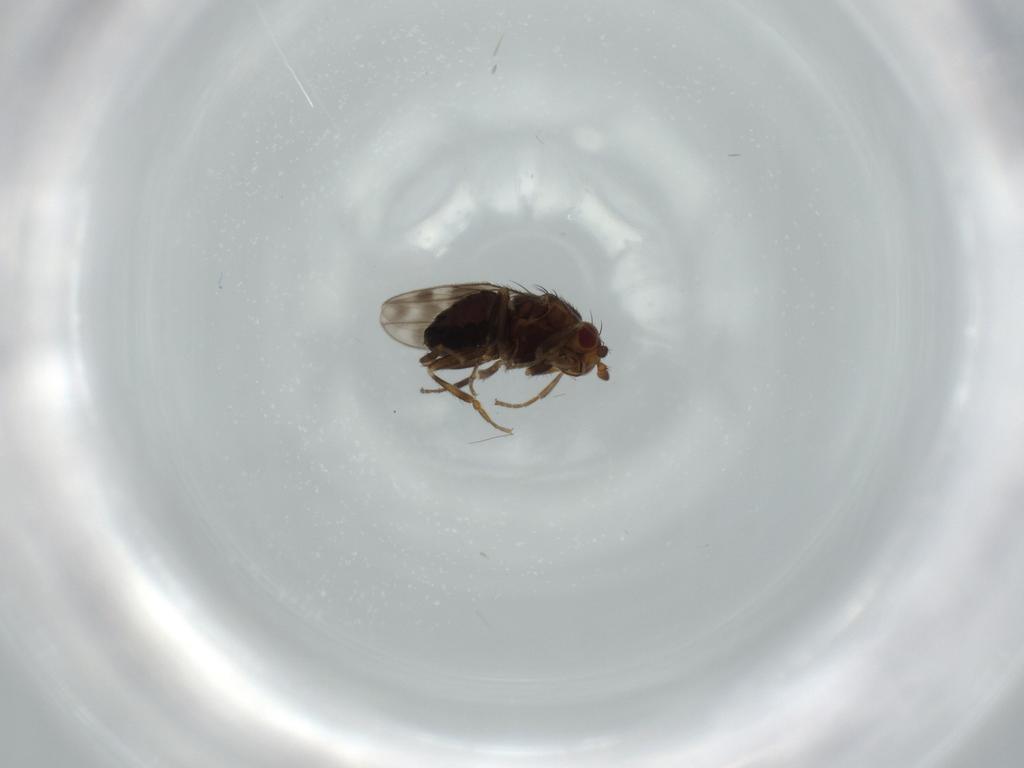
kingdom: Animalia
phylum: Arthropoda
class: Insecta
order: Diptera
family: Sphaeroceridae
